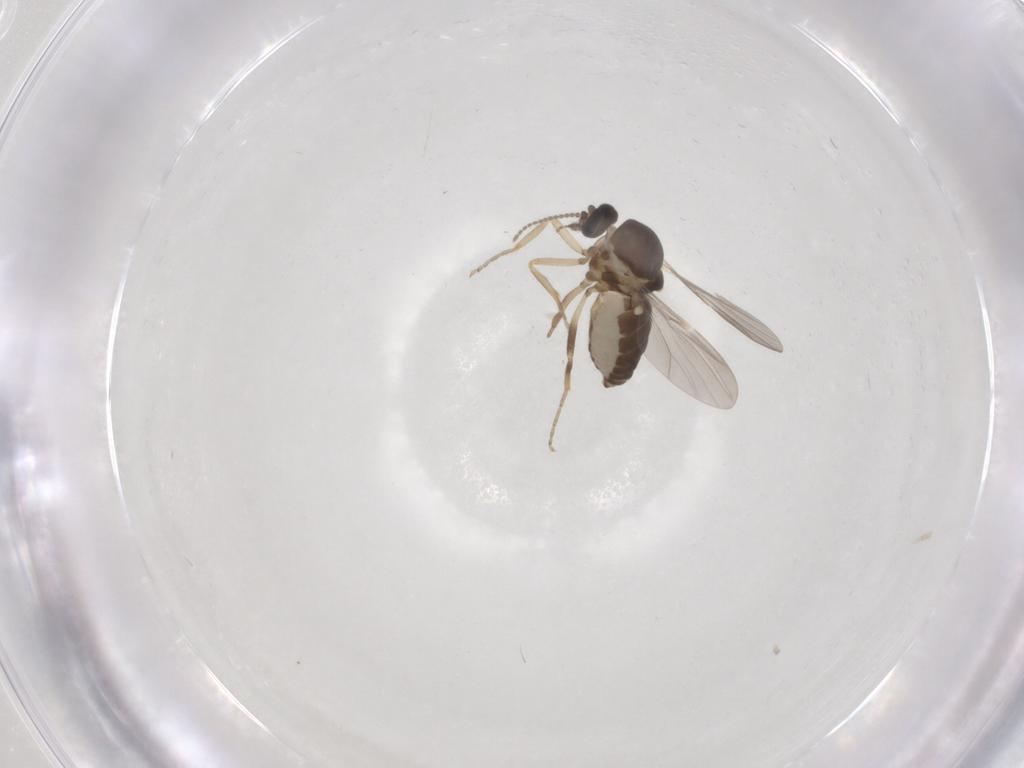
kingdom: Animalia
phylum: Arthropoda
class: Insecta
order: Diptera
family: Ceratopogonidae
